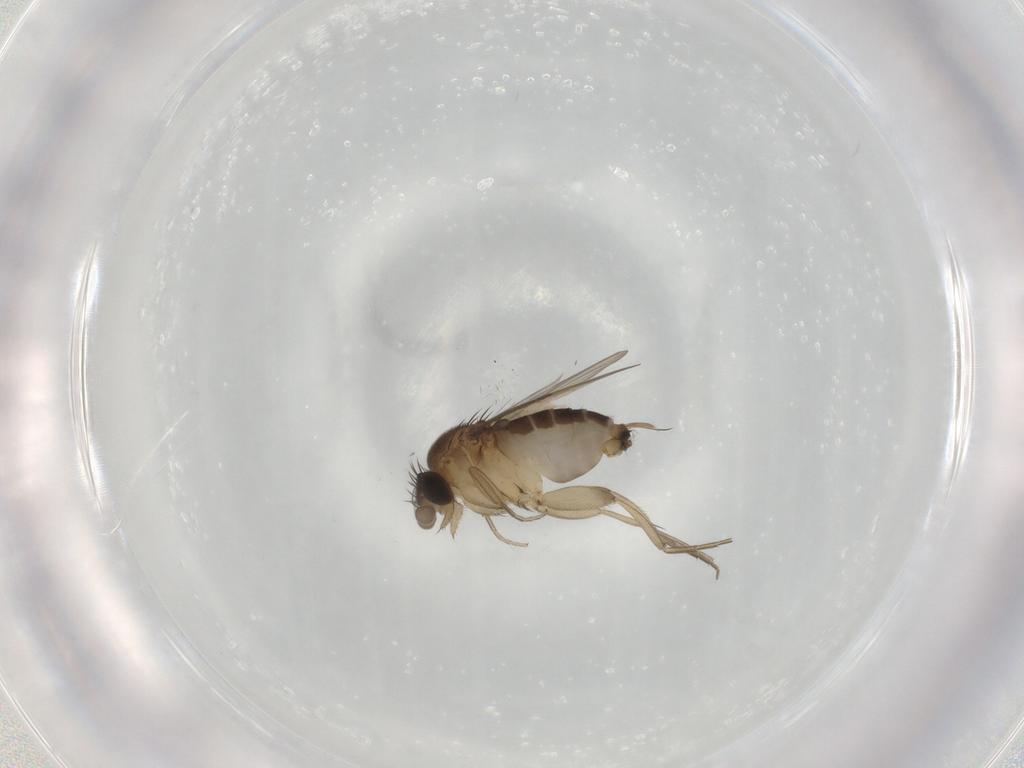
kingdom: Animalia
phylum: Arthropoda
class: Insecta
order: Diptera
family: Phoridae
